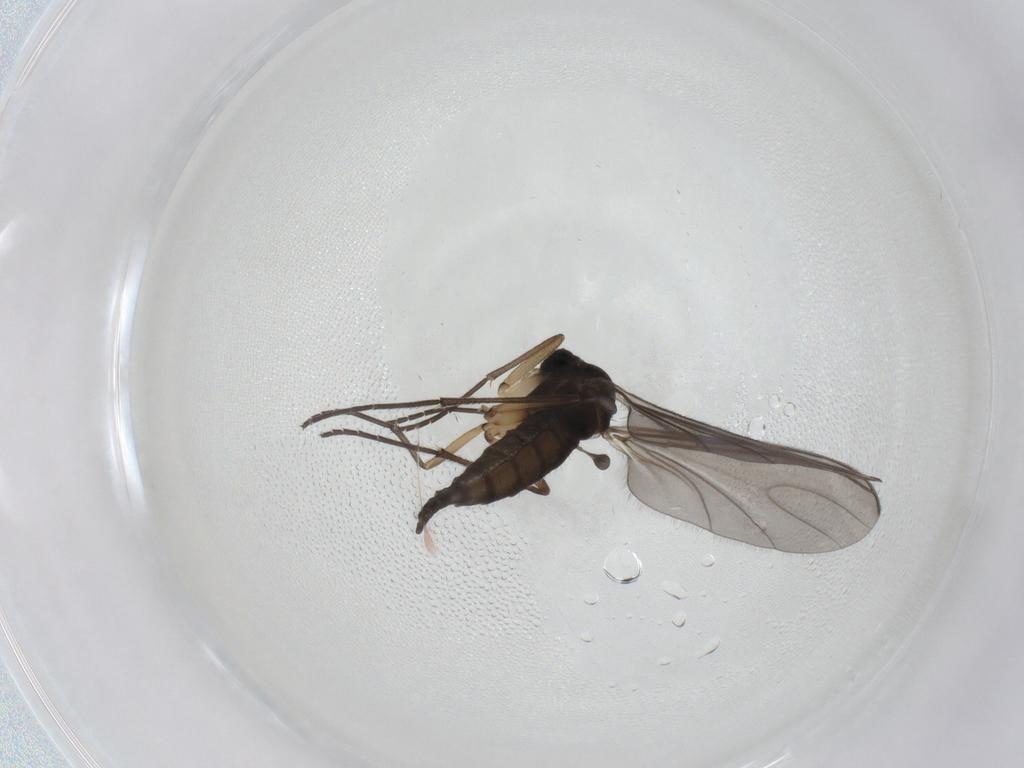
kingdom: Animalia
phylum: Arthropoda
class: Insecta
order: Diptera
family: Sciaridae
